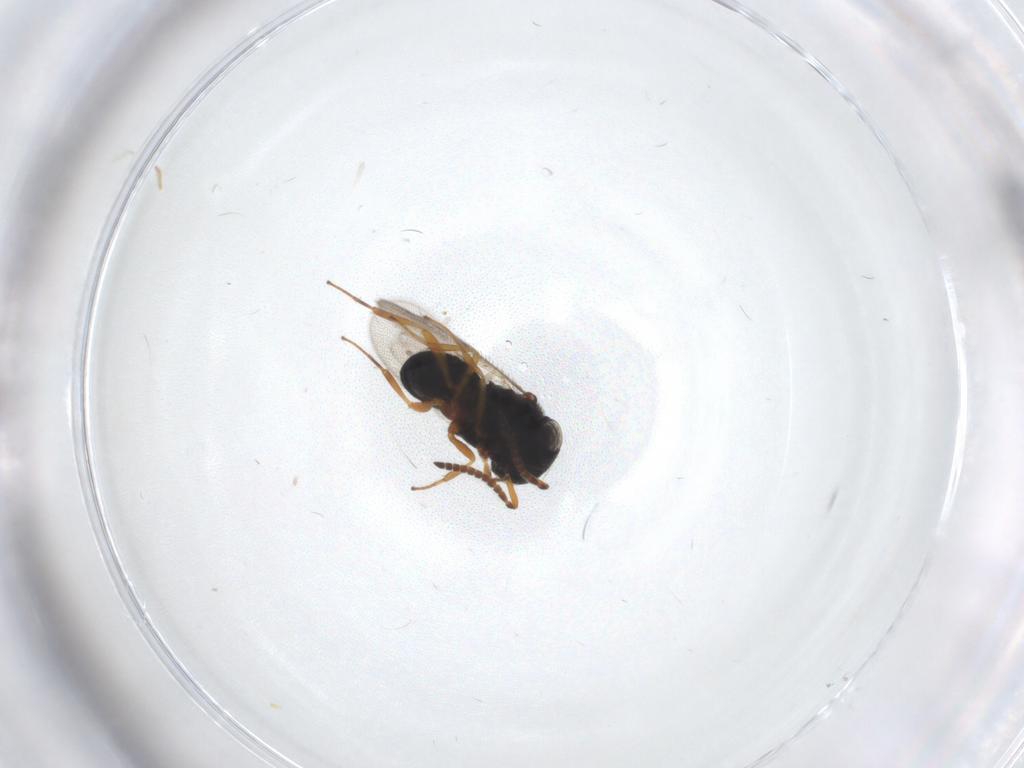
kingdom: Animalia
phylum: Arthropoda
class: Insecta
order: Hymenoptera
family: Scelionidae
